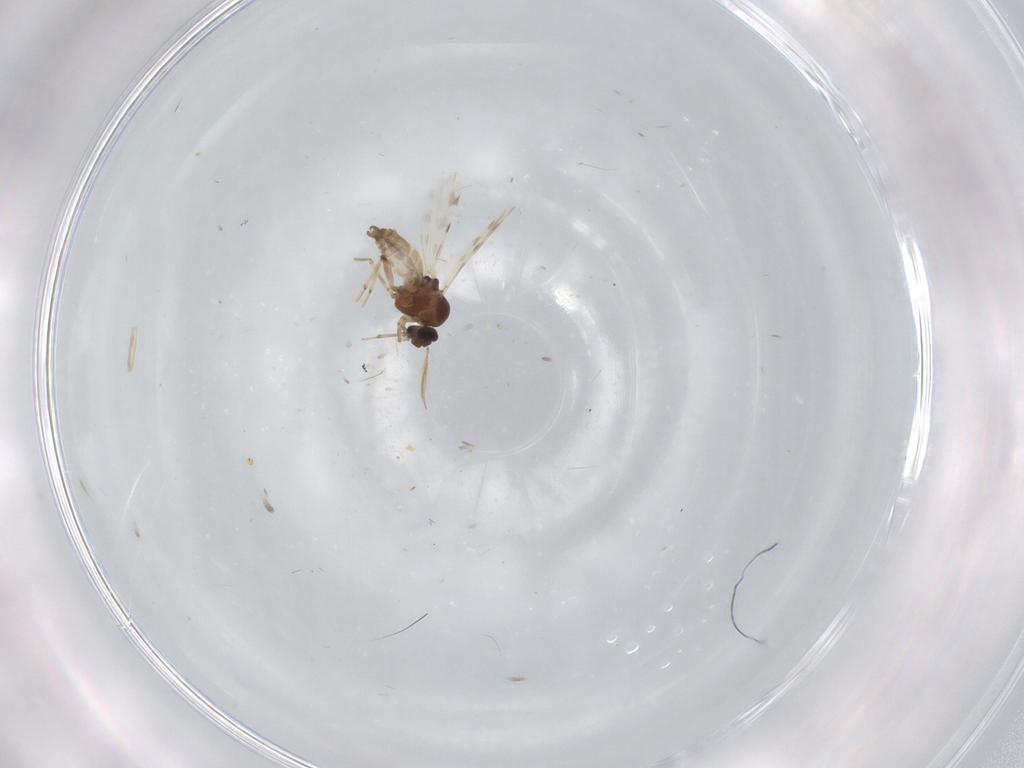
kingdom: Animalia
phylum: Arthropoda
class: Insecta
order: Diptera
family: Ceratopogonidae
